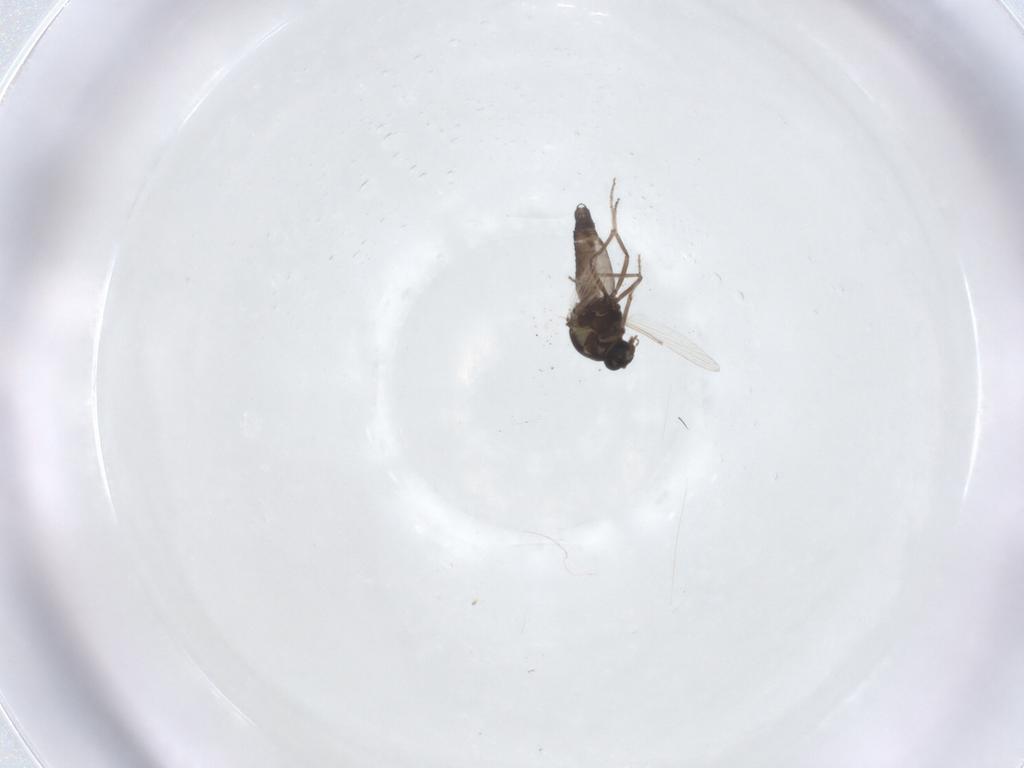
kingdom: Animalia
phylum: Arthropoda
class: Insecta
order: Diptera
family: Ceratopogonidae
